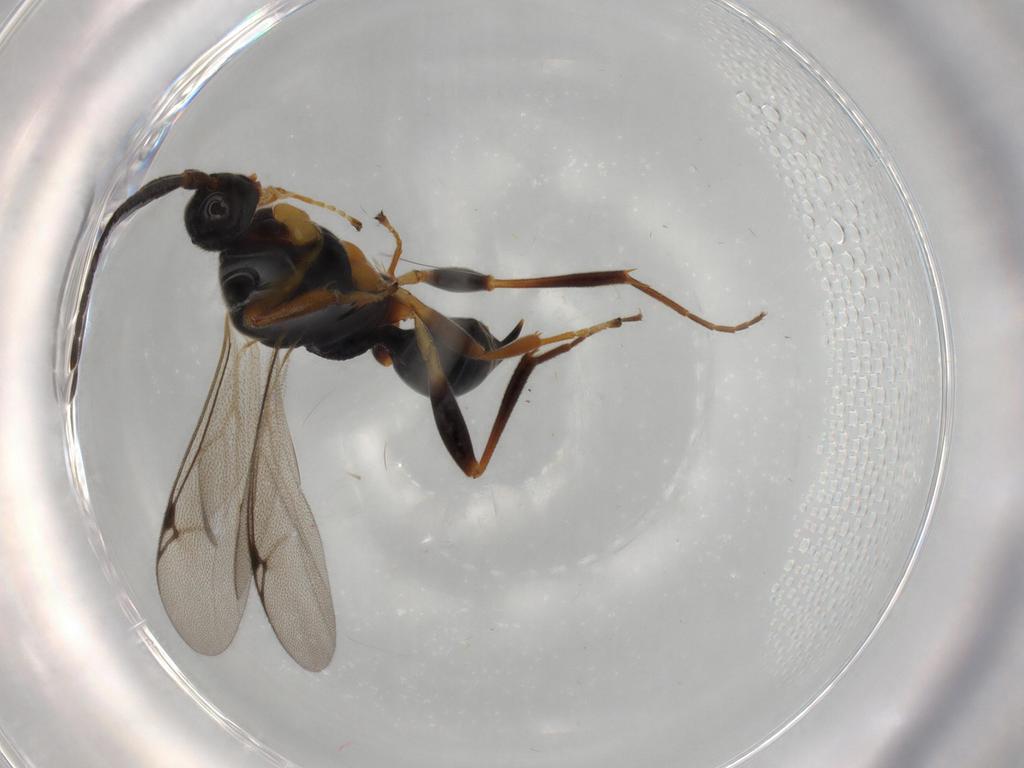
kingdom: Animalia
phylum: Arthropoda
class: Insecta
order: Hymenoptera
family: Proctotrupidae
